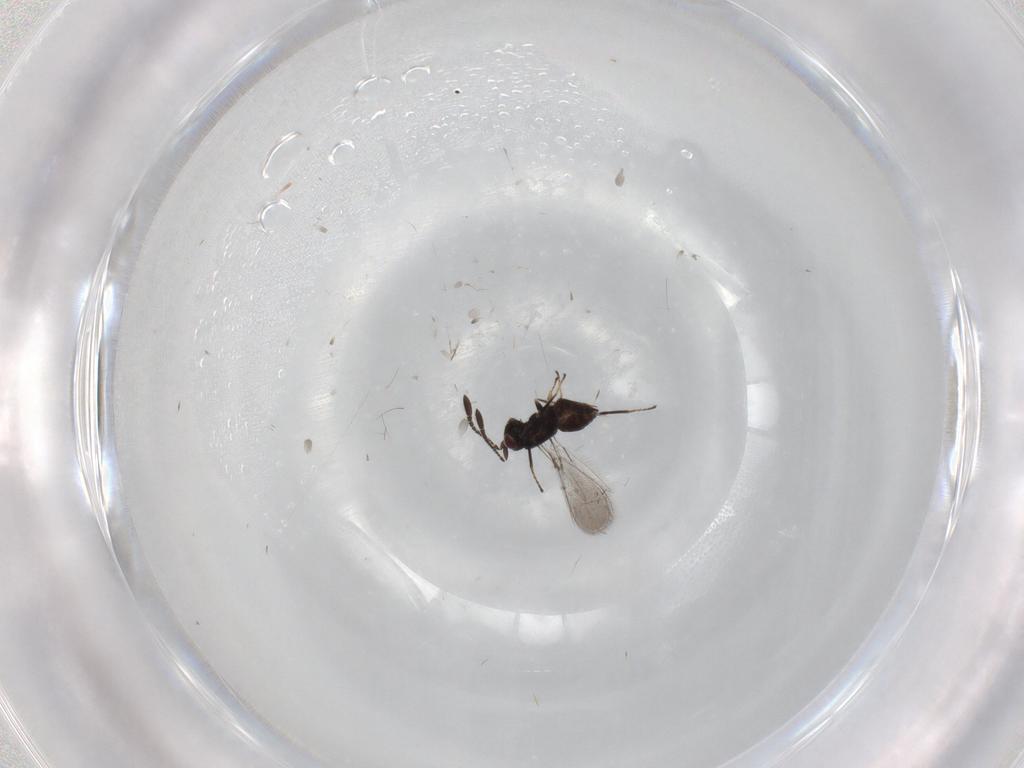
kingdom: Animalia
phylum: Arthropoda
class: Insecta
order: Hymenoptera
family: Mymaridae
